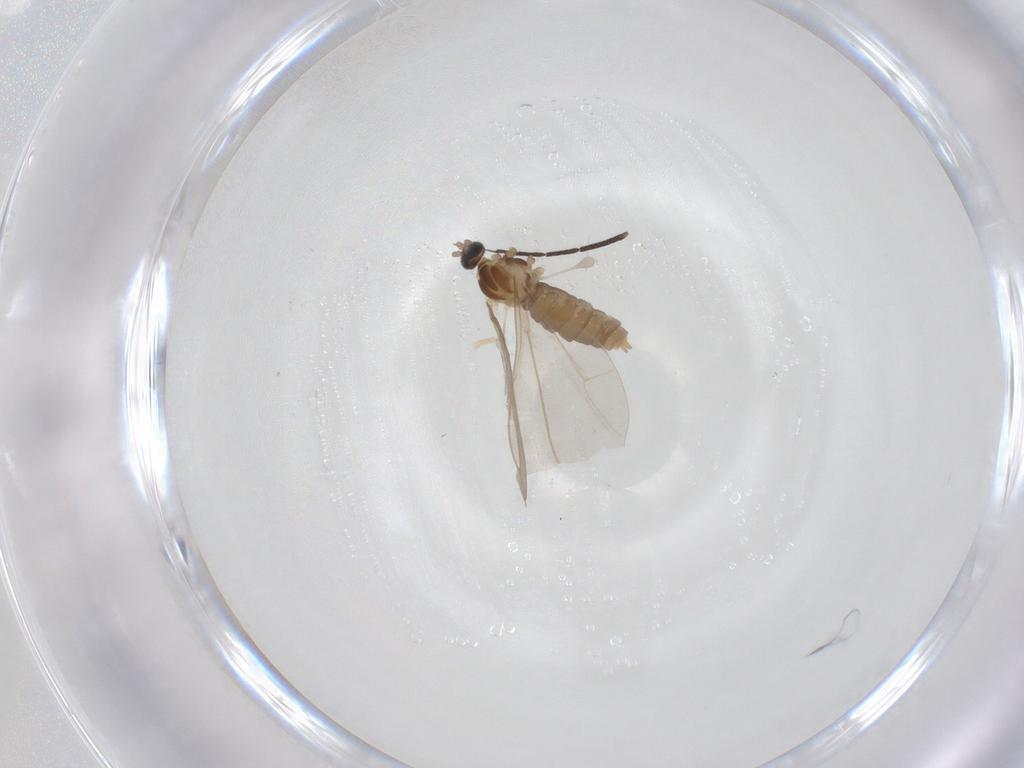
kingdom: Animalia
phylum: Arthropoda
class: Insecta
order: Diptera
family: Cecidomyiidae
